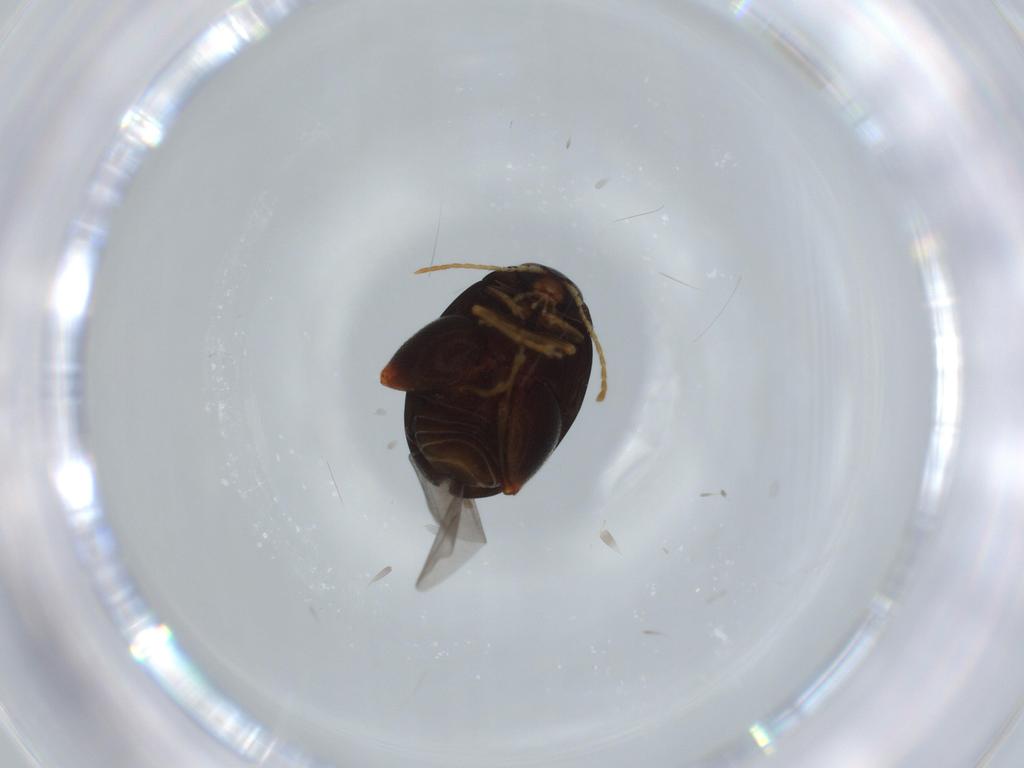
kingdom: Animalia
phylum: Arthropoda
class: Insecta
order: Coleoptera
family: Chrysomelidae
